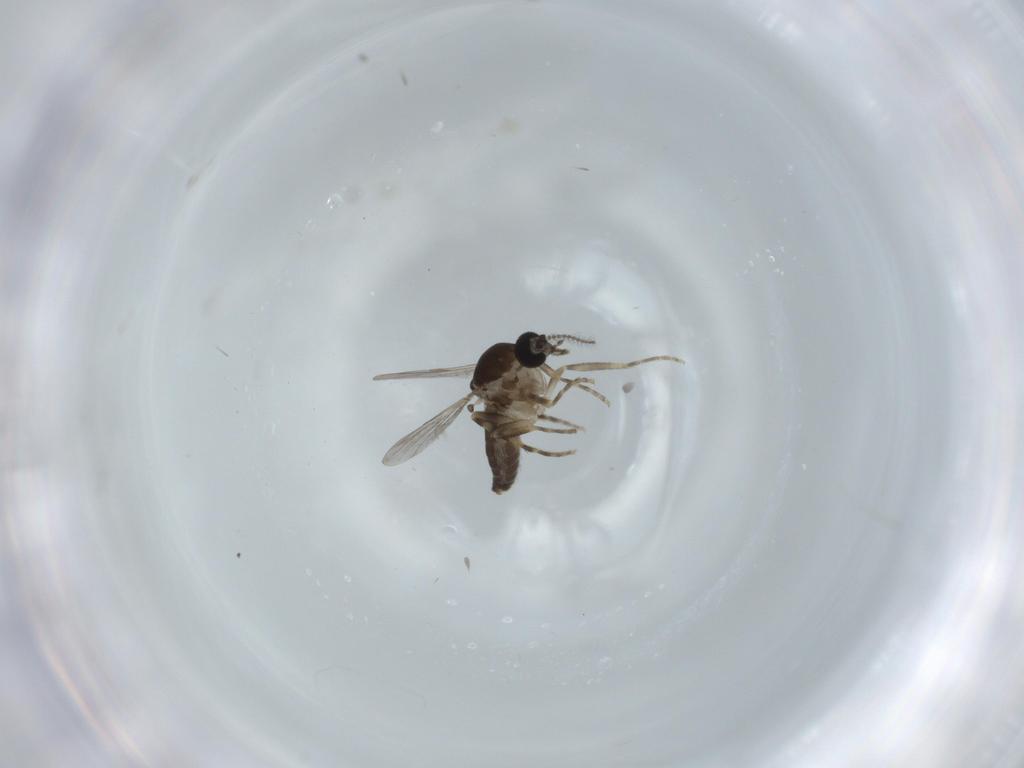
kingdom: Animalia
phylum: Arthropoda
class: Insecta
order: Diptera
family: Ceratopogonidae
